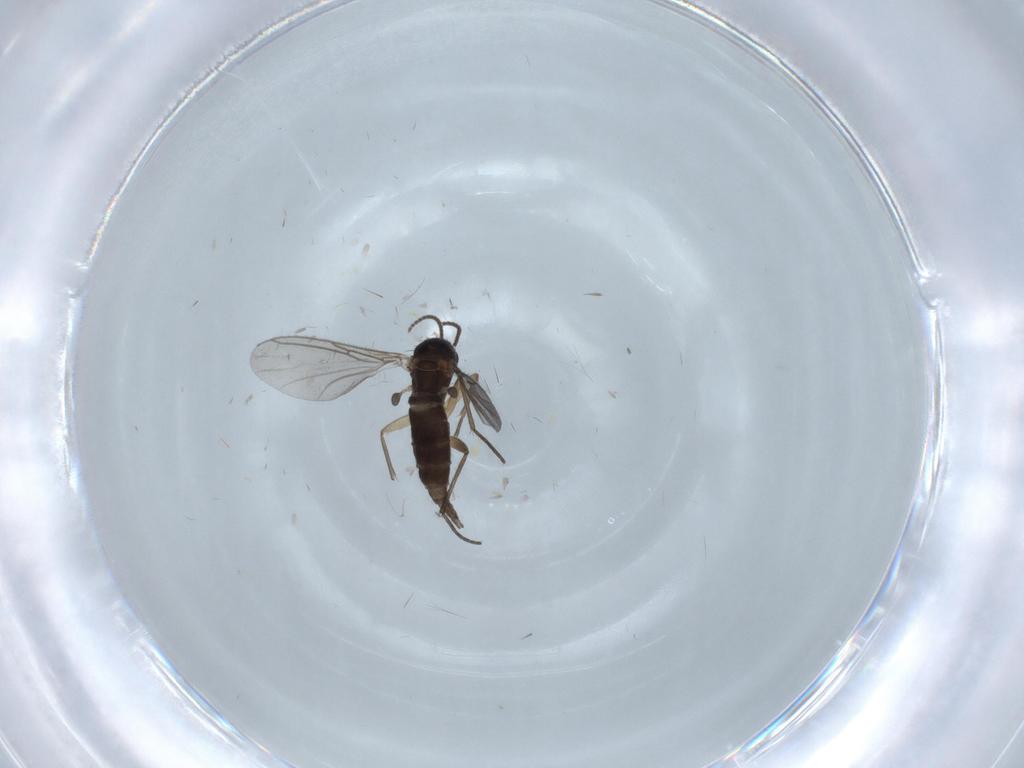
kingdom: Animalia
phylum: Arthropoda
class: Insecta
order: Diptera
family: Sciaridae
